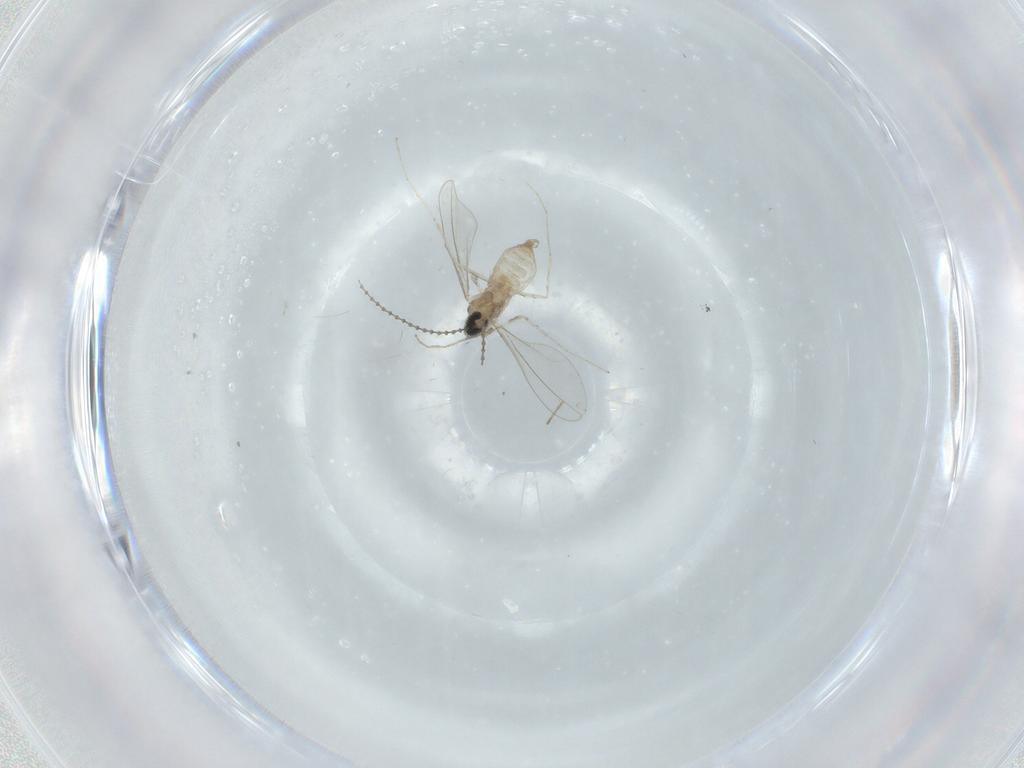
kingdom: Animalia
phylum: Arthropoda
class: Insecta
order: Diptera
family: Cecidomyiidae
